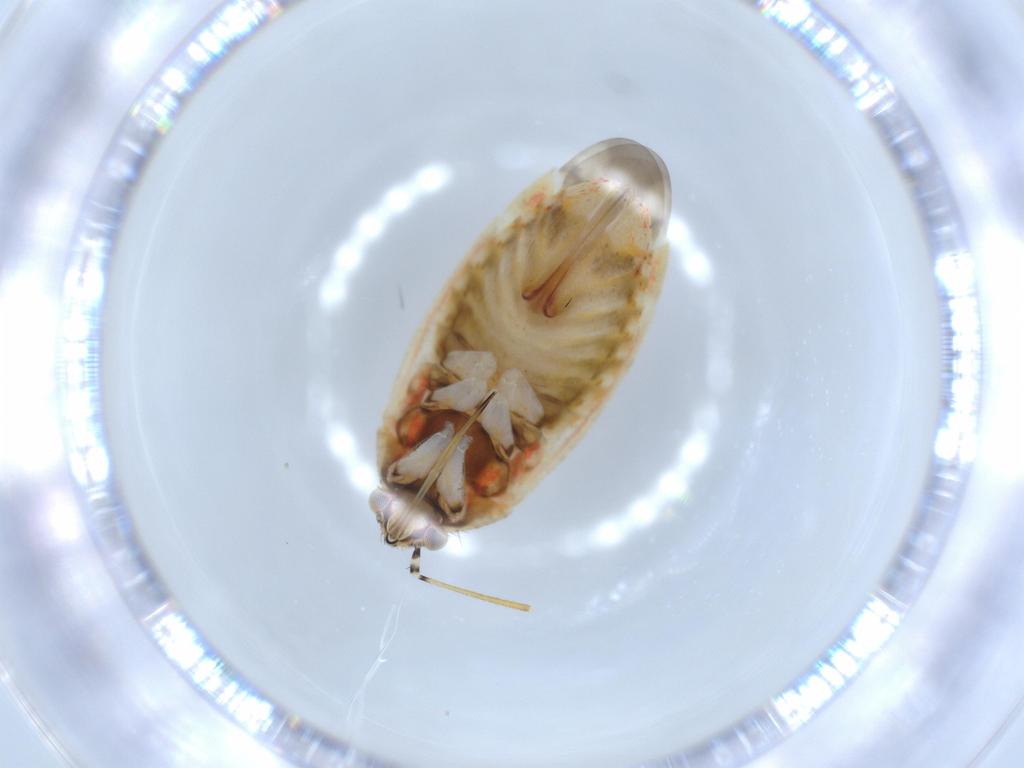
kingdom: Animalia
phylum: Arthropoda
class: Insecta
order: Hemiptera
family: Aphididae
